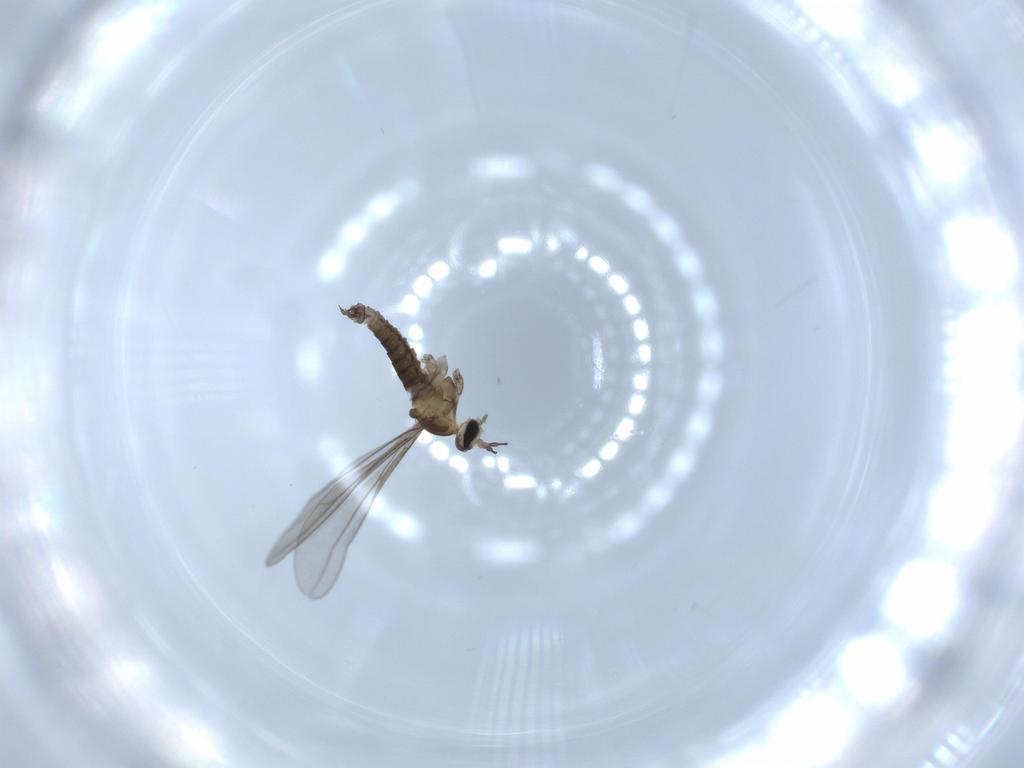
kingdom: Animalia
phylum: Arthropoda
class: Insecta
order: Diptera
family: Cecidomyiidae
